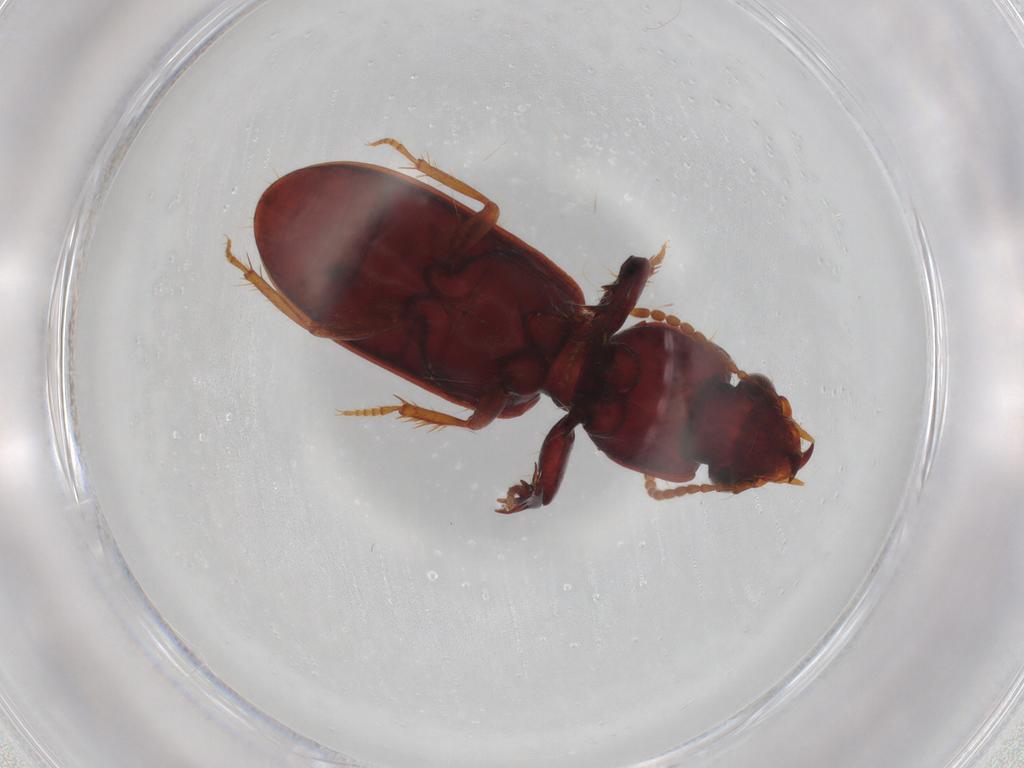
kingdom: Animalia
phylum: Arthropoda
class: Insecta
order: Coleoptera
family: Carabidae
